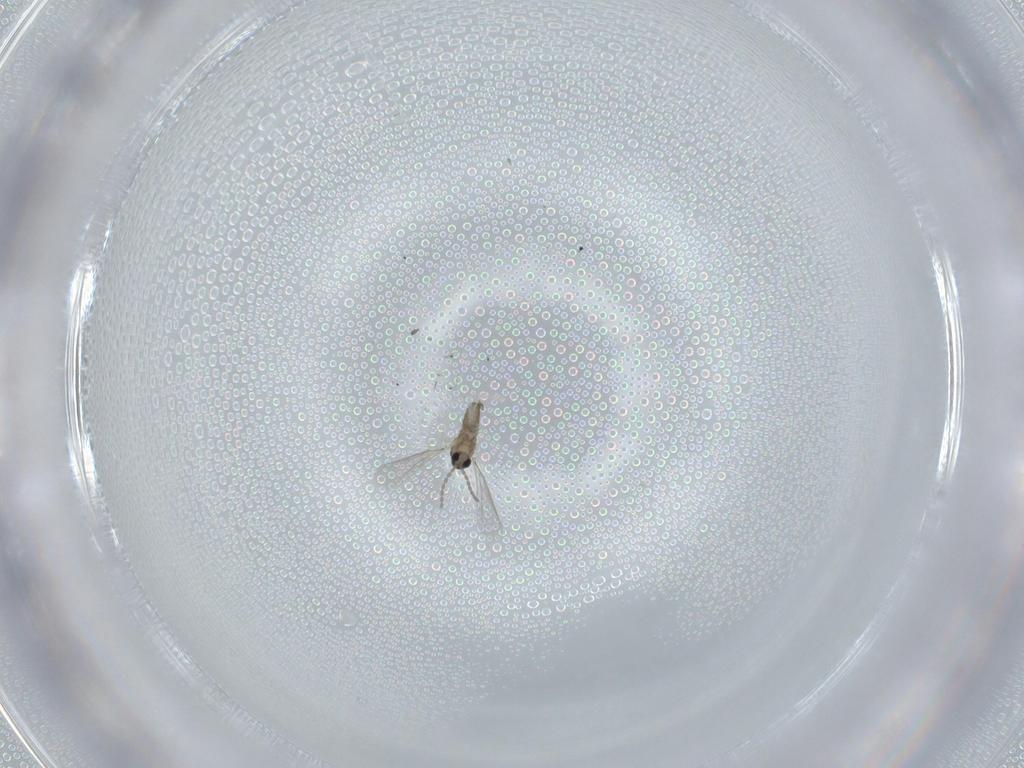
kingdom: Animalia
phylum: Arthropoda
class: Insecta
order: Diptera
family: Cecidomyiidae
